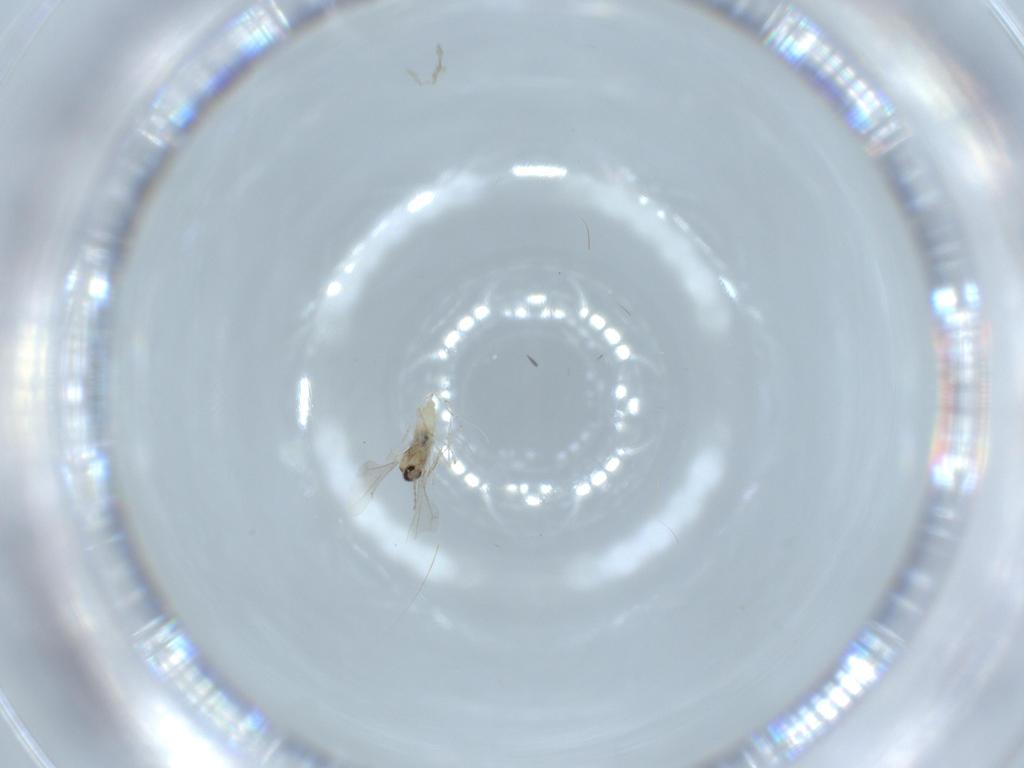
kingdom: Animalia
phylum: Arthropoda
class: Insecta
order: Diptera
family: Cecidomyiidae
